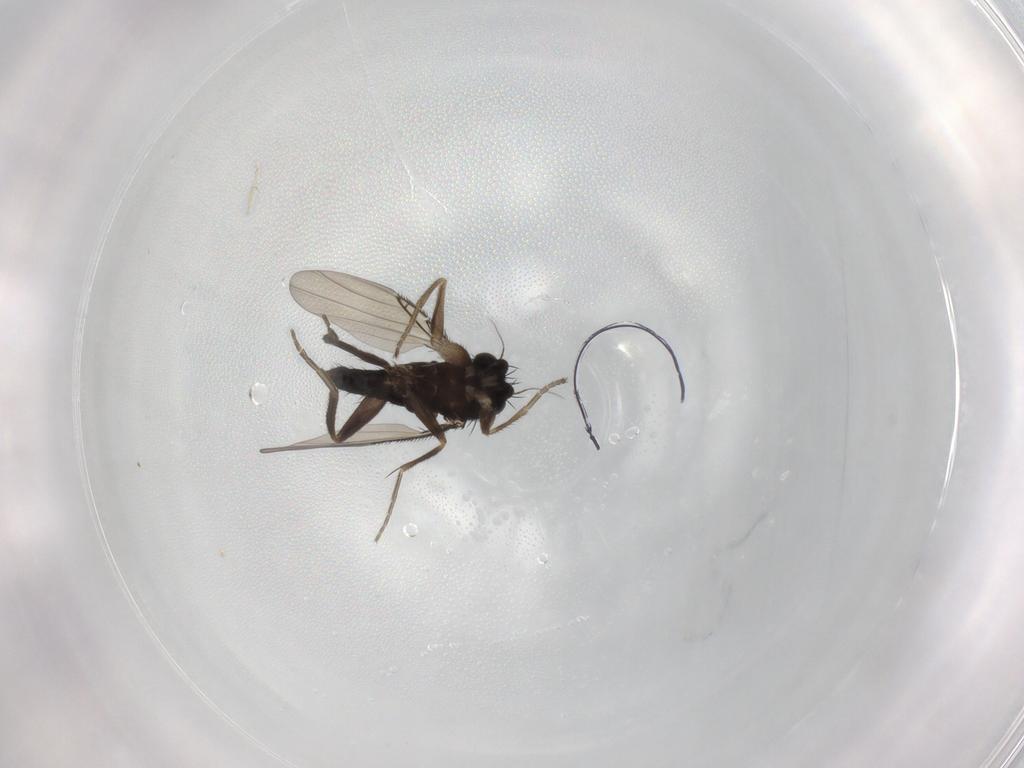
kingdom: Animalia
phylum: Arthropoda
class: Insecta
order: Diptera
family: Phoridae
